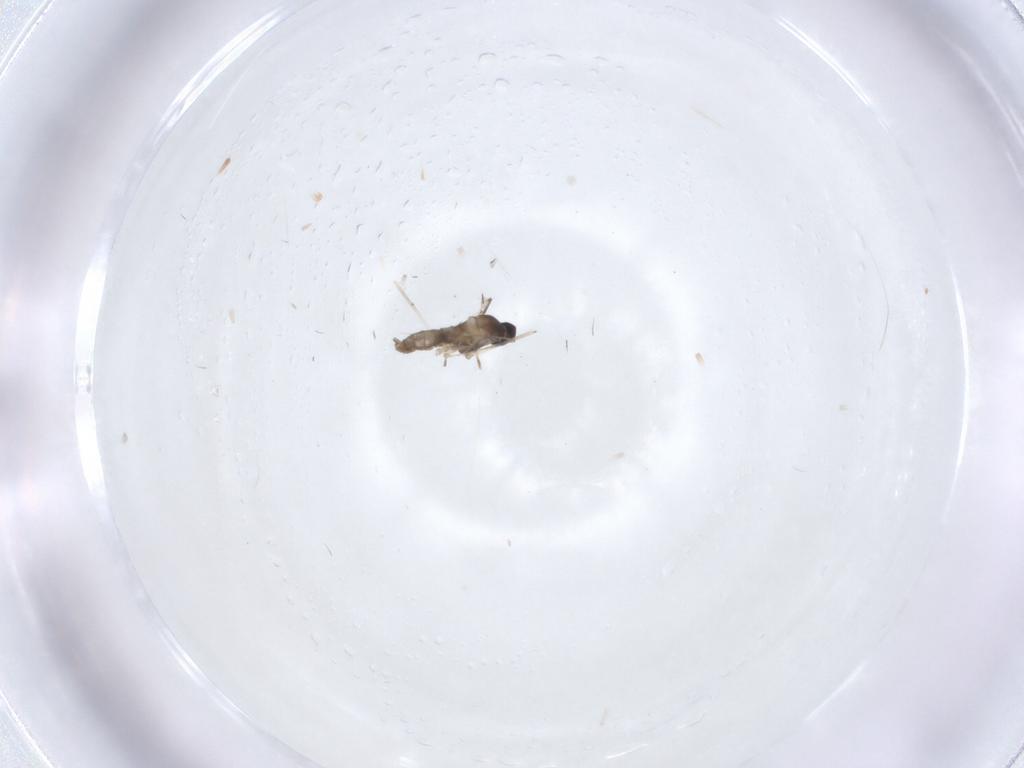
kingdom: Animalia
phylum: Arthropoda
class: Insecta
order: Diptera
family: Cecidomyiidae
